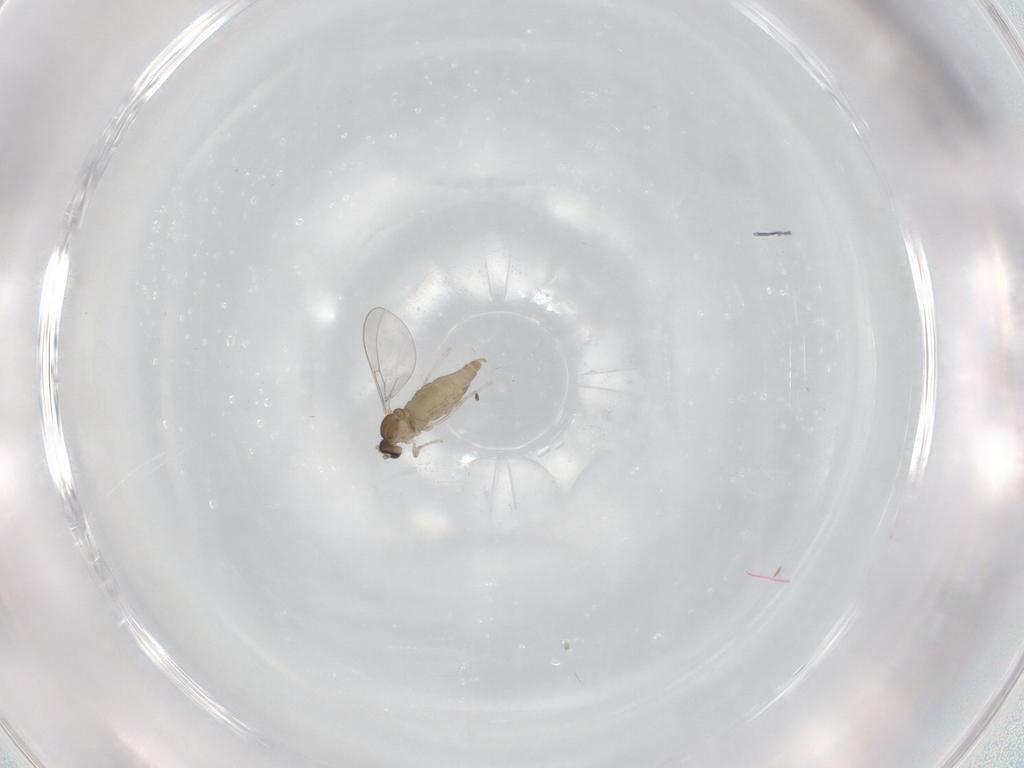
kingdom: Animalia
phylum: Arthropoda
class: Insecta
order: Diptera
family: Cecidomyiidae
